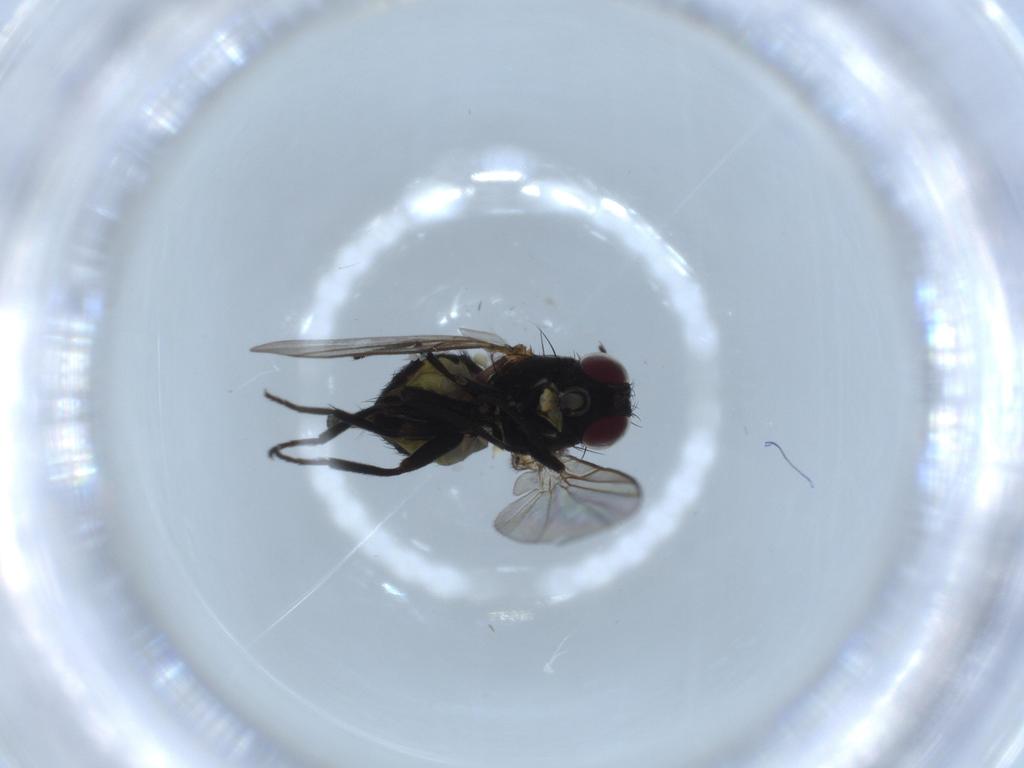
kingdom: Animalia
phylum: Arthropoda
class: Insecta
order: Diptera
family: Agromyzidae
